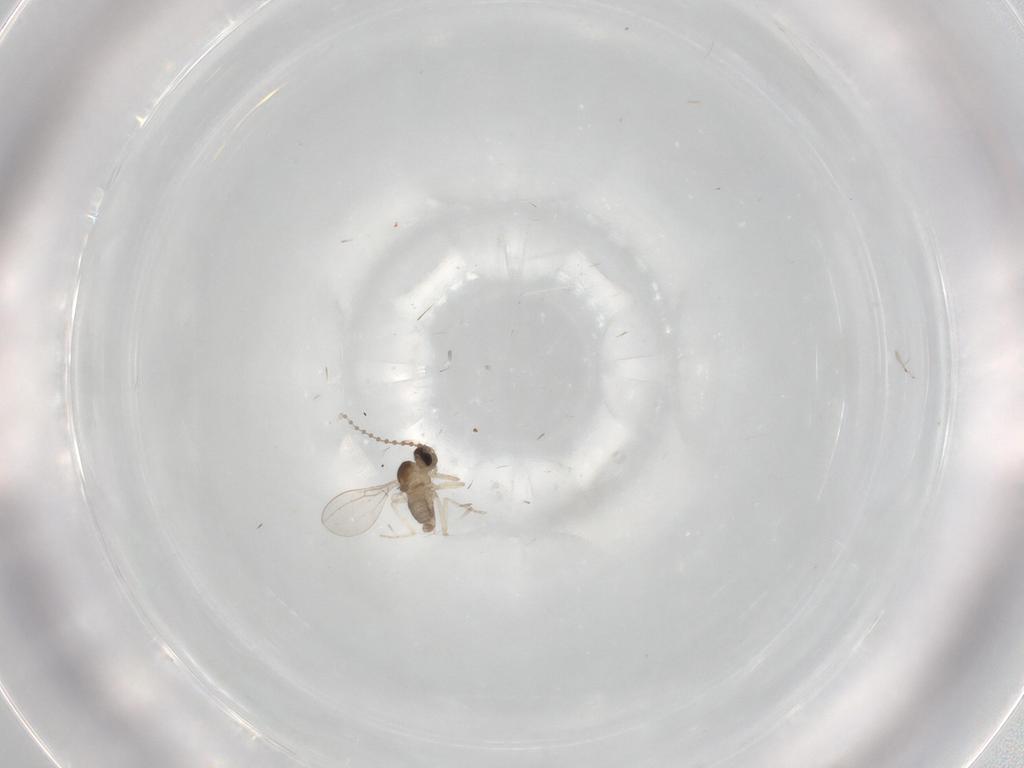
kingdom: Animalia
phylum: Arthropoda
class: Insecta
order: Diptera
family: Cecidomyiidae
